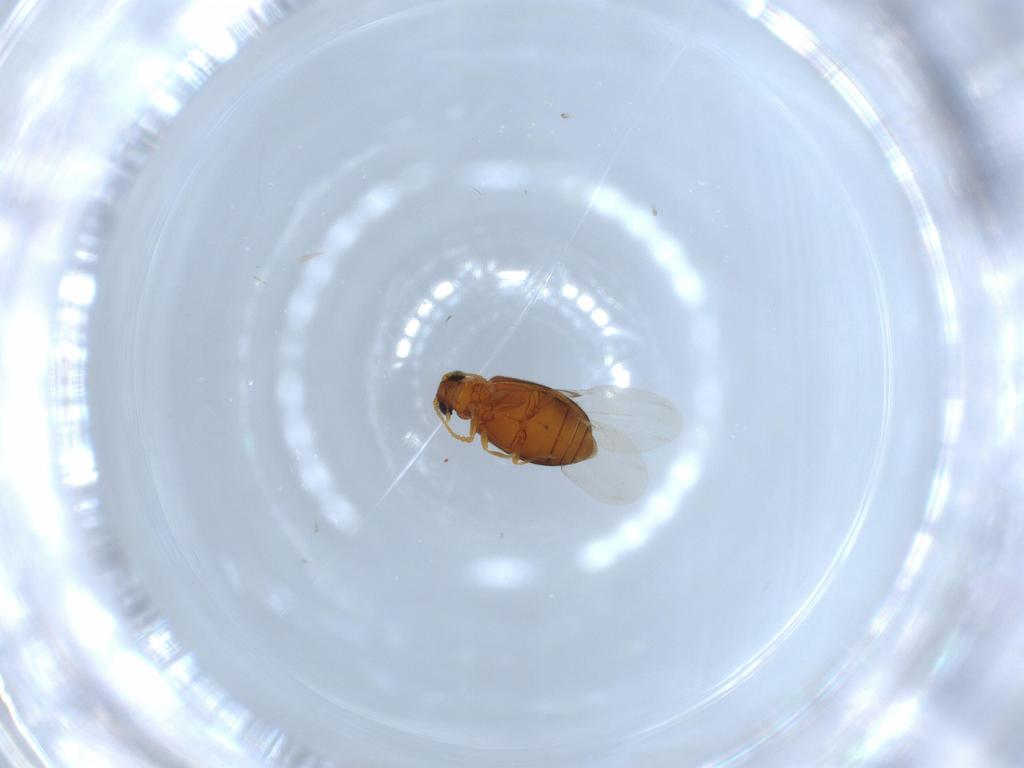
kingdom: Animalia
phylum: Arthropoda
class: Insecta
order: Coleoptera
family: Aderidae
